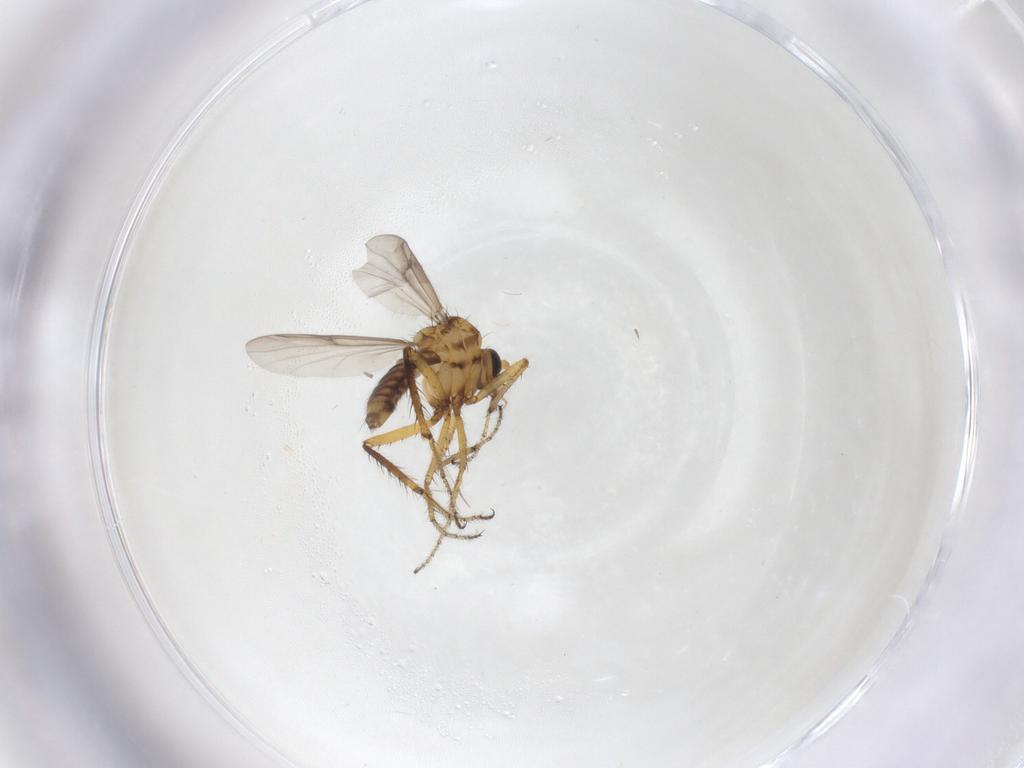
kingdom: Animalia
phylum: Arthropoda
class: Insecta
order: Diptera
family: Ceratopogonidae
